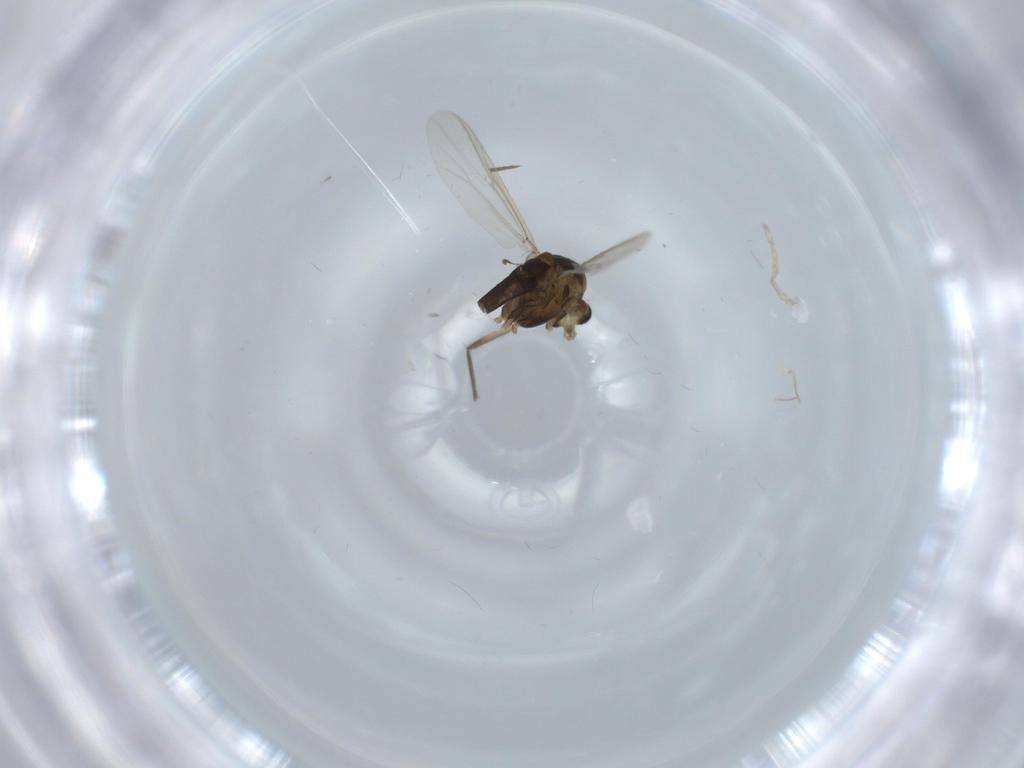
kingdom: Animalia
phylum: Arthropoda
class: Insecta
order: Diptera
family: Chironomidae
